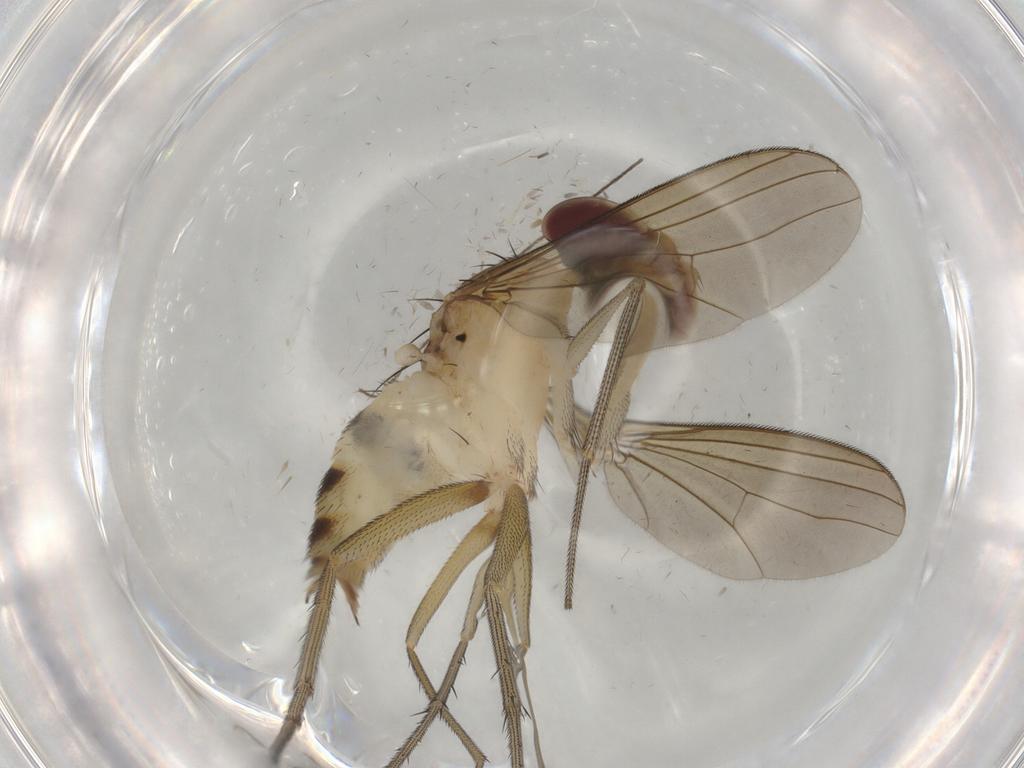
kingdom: Animalia
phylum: Arthropoda
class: Insecta
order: Diptera
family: Dolichopodidae
